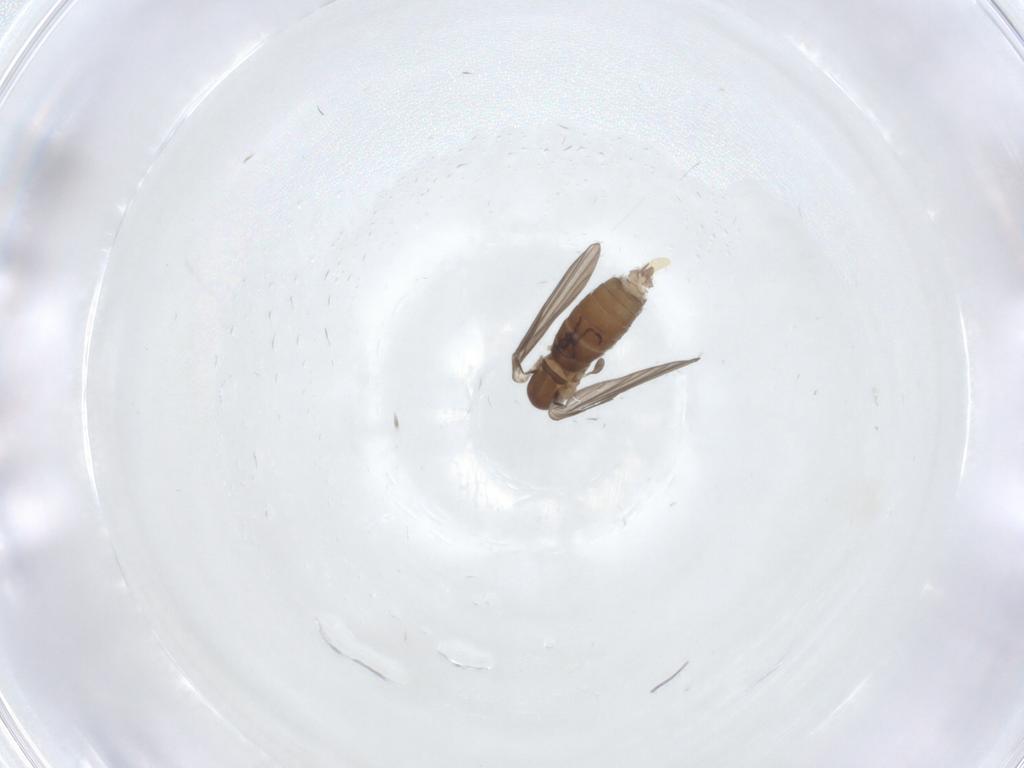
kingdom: Animalia
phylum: Arthropoda
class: Insecta
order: Diptera
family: Psychodidae
